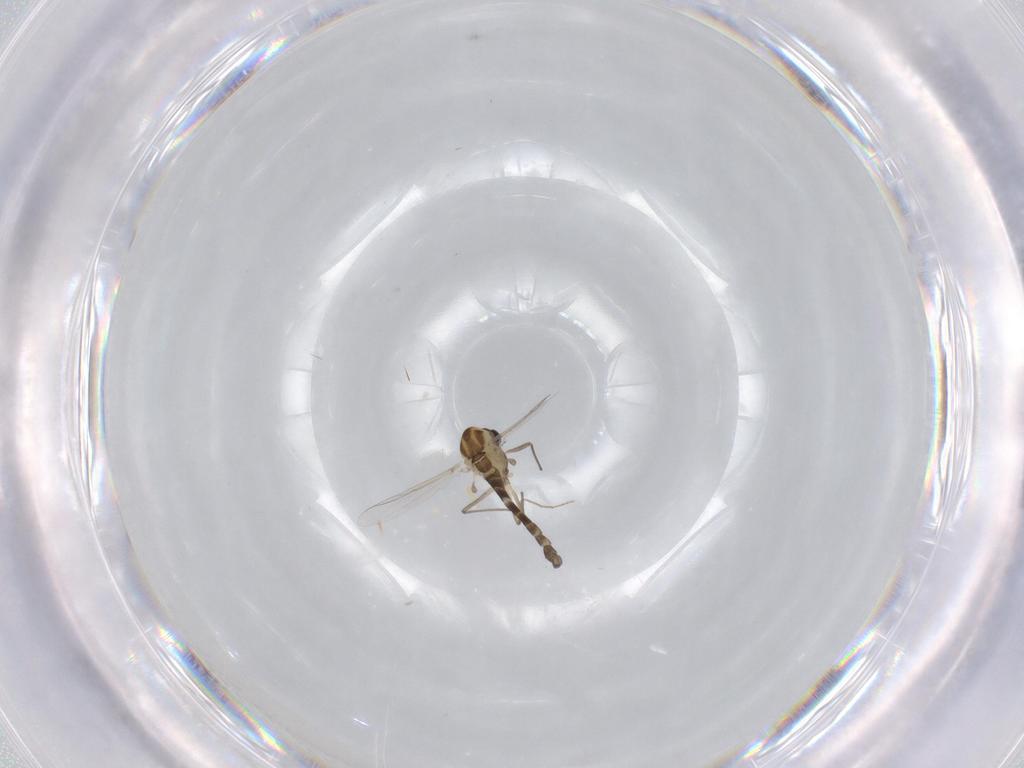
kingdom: Animalia
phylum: Arthropoda
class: Insecta
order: Diptera
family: Chironomidae
